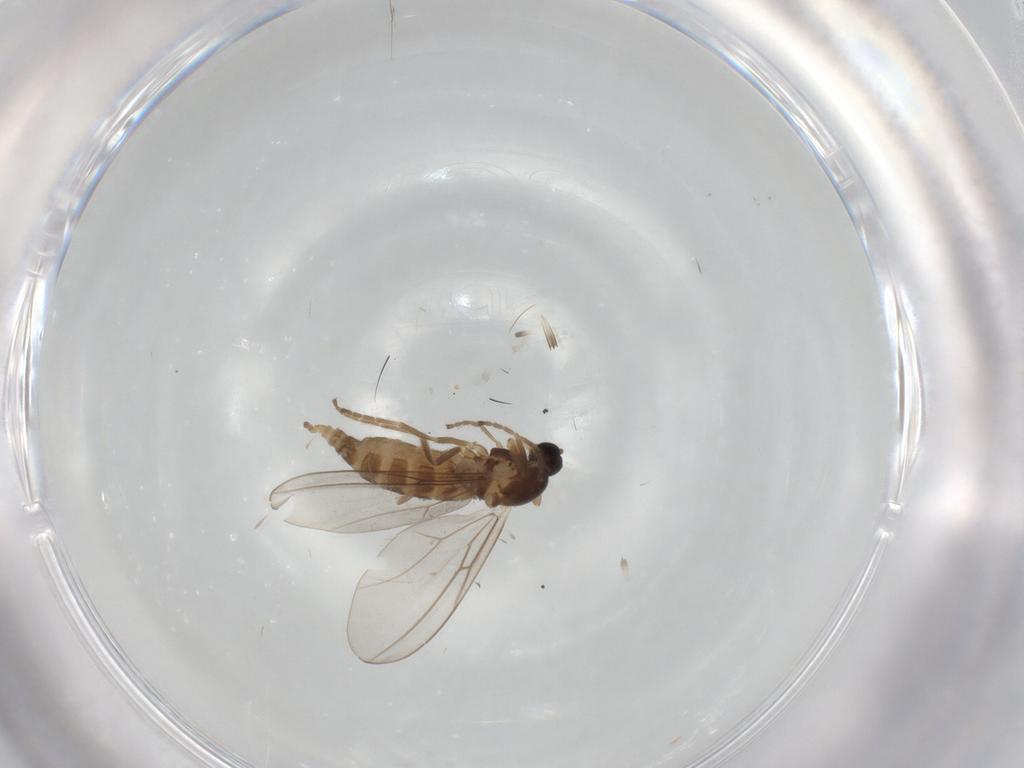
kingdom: Animalia
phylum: Arthropoda
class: Insecta
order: Diptera
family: Cecidomyiidae
